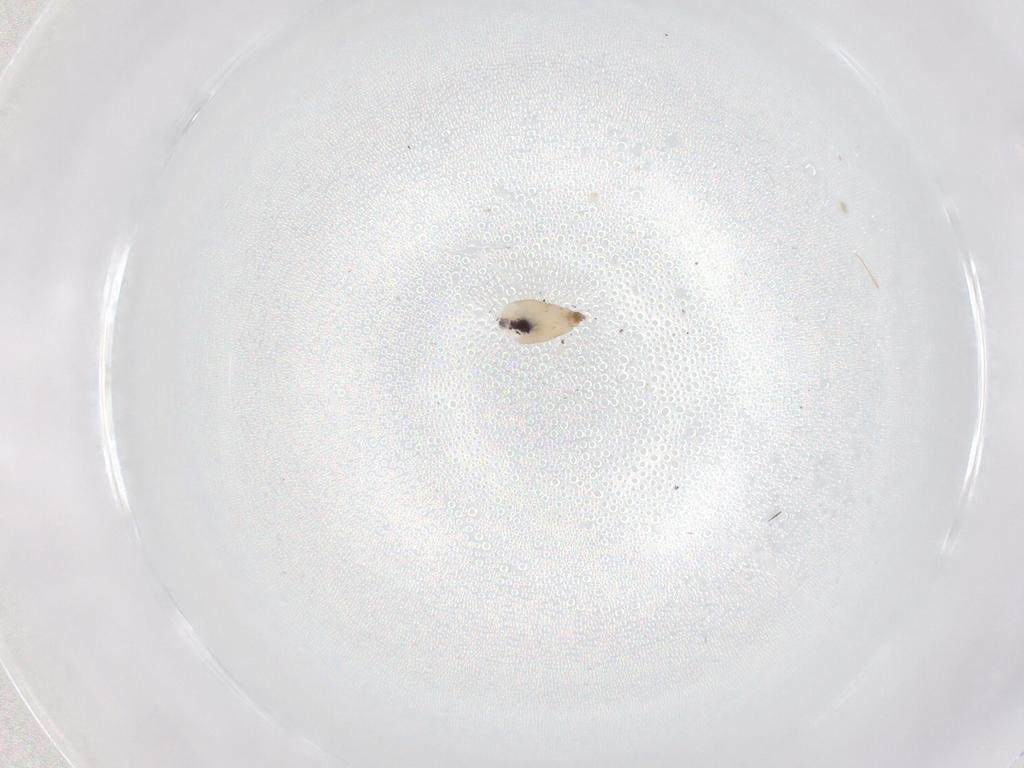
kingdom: Animalia
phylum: Arthropoda
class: Insecta
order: Diptera
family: Cecidomyiidae
